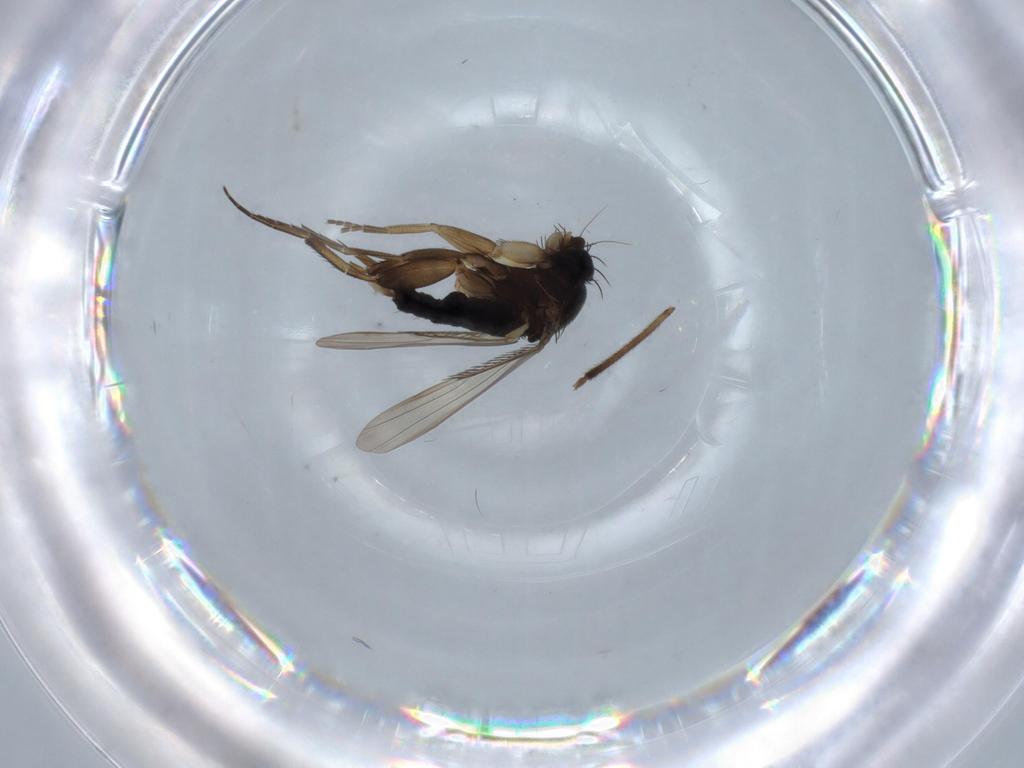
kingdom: Animalia
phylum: Arthropoda
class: Insecta
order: Diptera
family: Chironomidae
